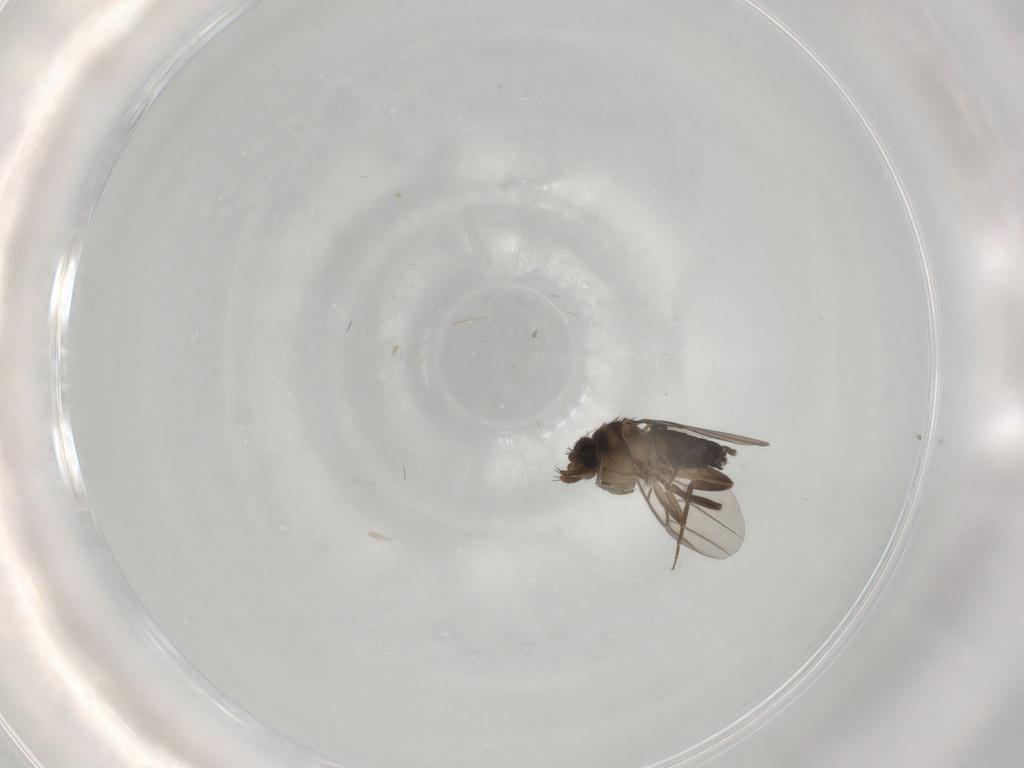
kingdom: Animalia
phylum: Arthropoda
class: Insecta
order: Diptera
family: Phoridae
